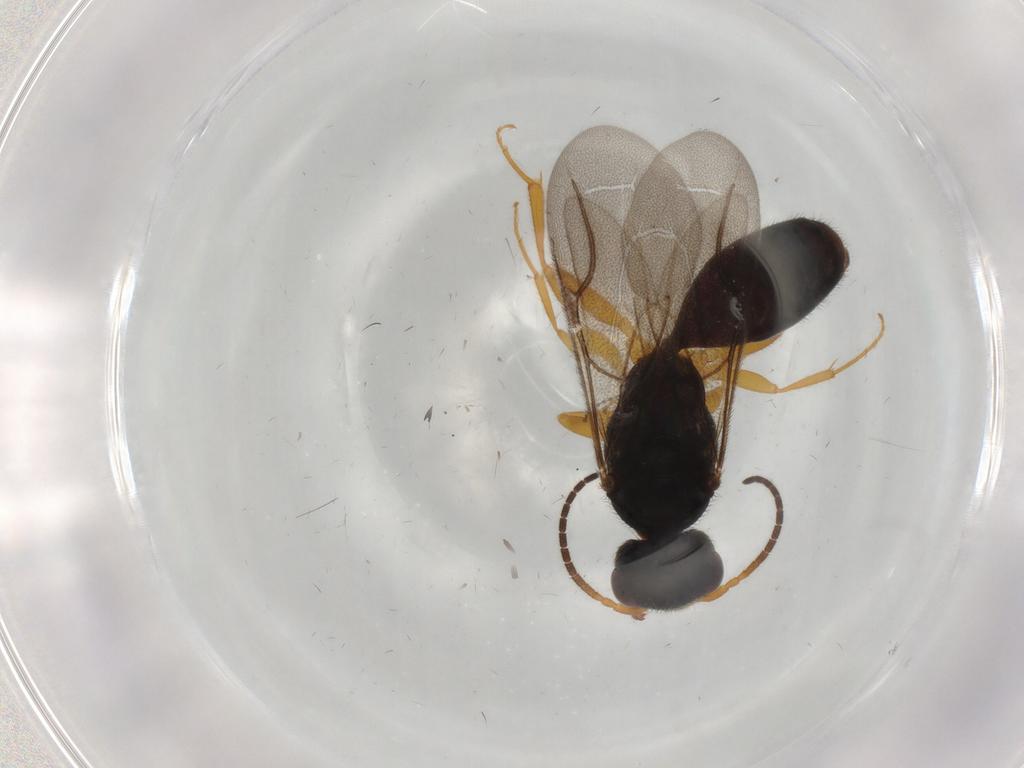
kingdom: Animalia
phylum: Arthropoda
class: Insecta
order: Hymenoptera
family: Bethylidae
